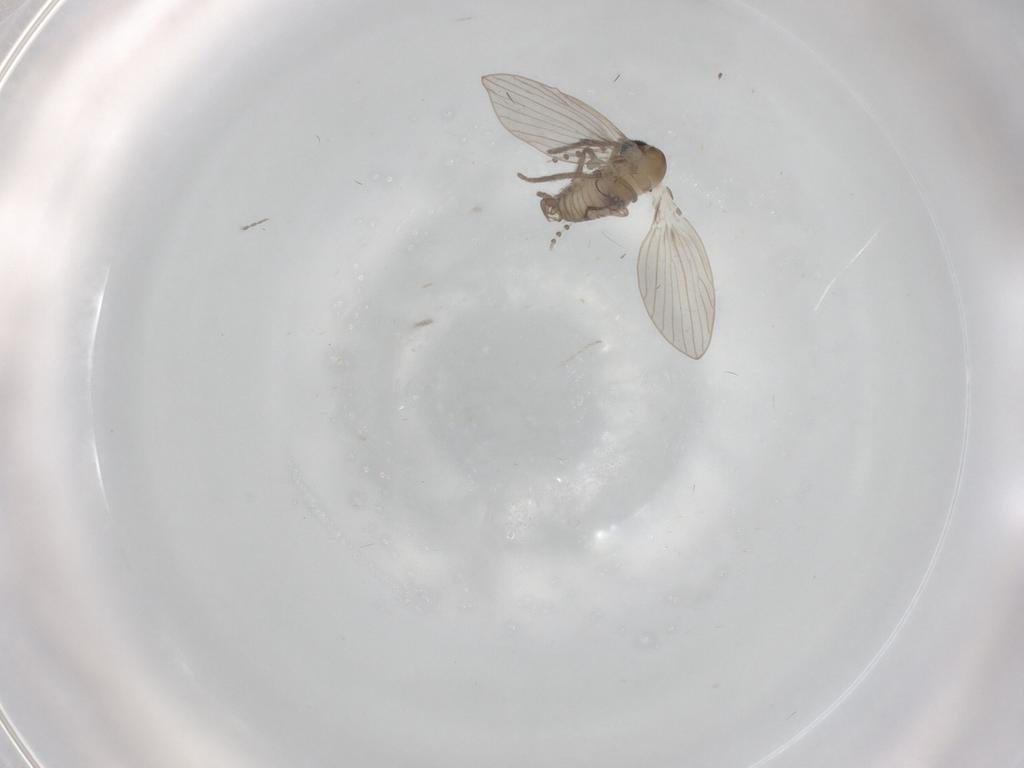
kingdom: Animalia
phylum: Arthropoda
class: Insecta
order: Diptera
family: Psychodidae
